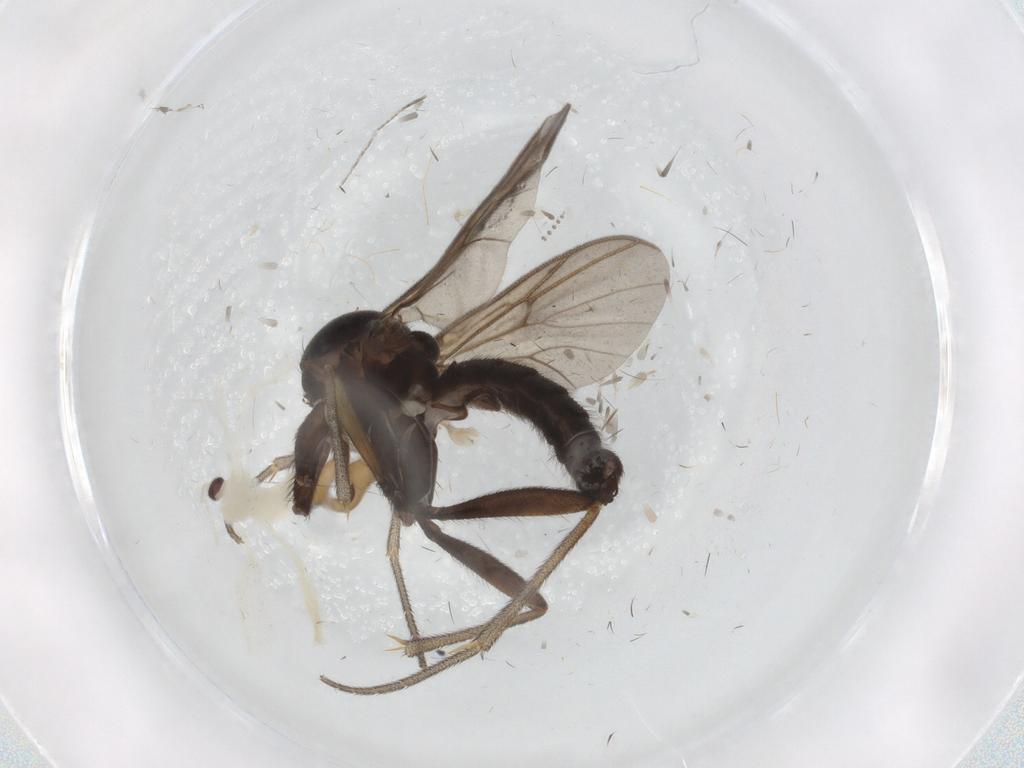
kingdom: Animalia
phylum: Arthropoda
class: Insecta
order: Diptera
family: Mycetophilidae
